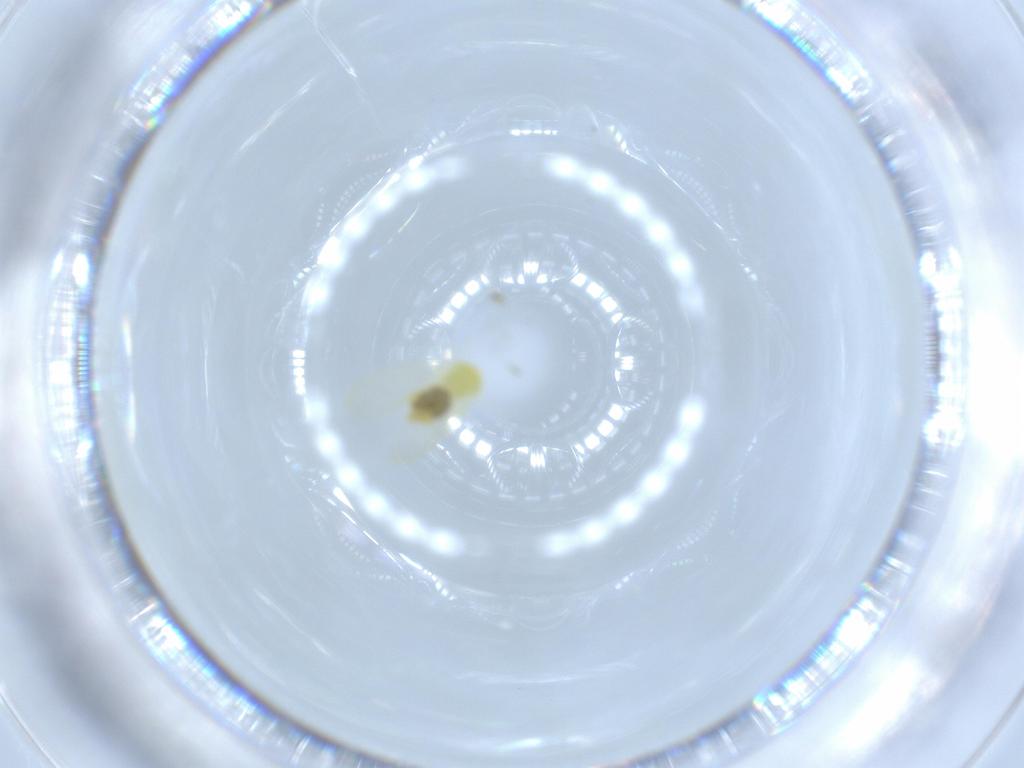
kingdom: Animalia
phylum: Arthropoda
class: Insecta
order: Hemiptera
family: Aleyrodidae
